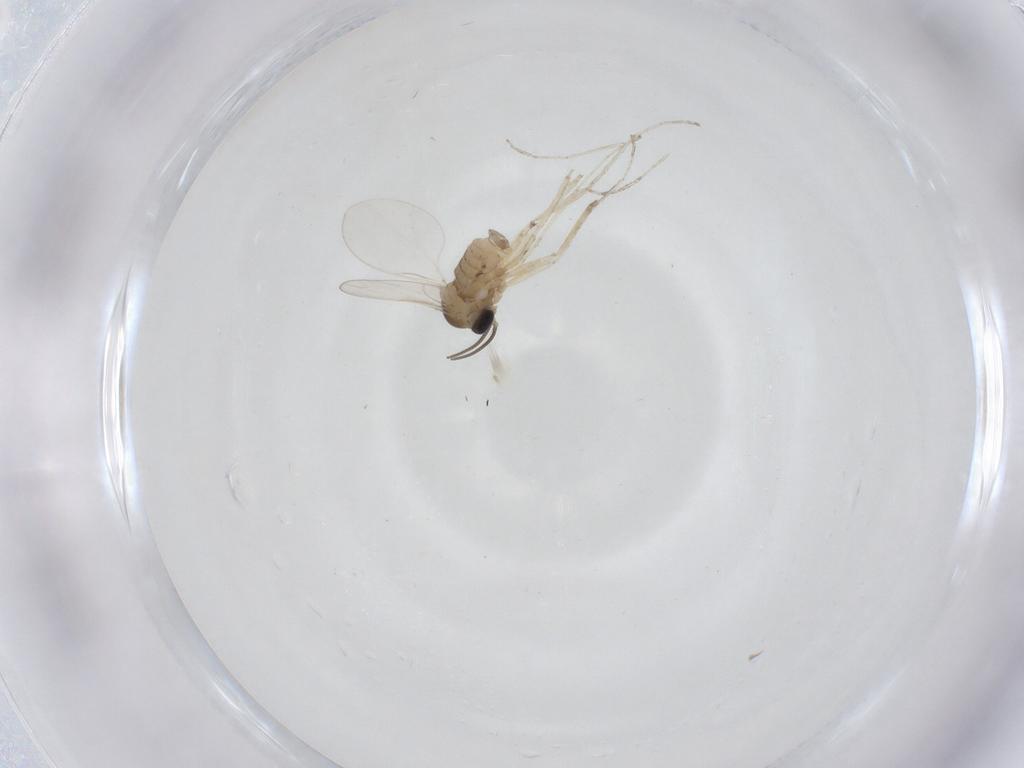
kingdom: Animalia
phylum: Arthropoda
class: Insecta
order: Diptera
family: Cecidomyiidae
